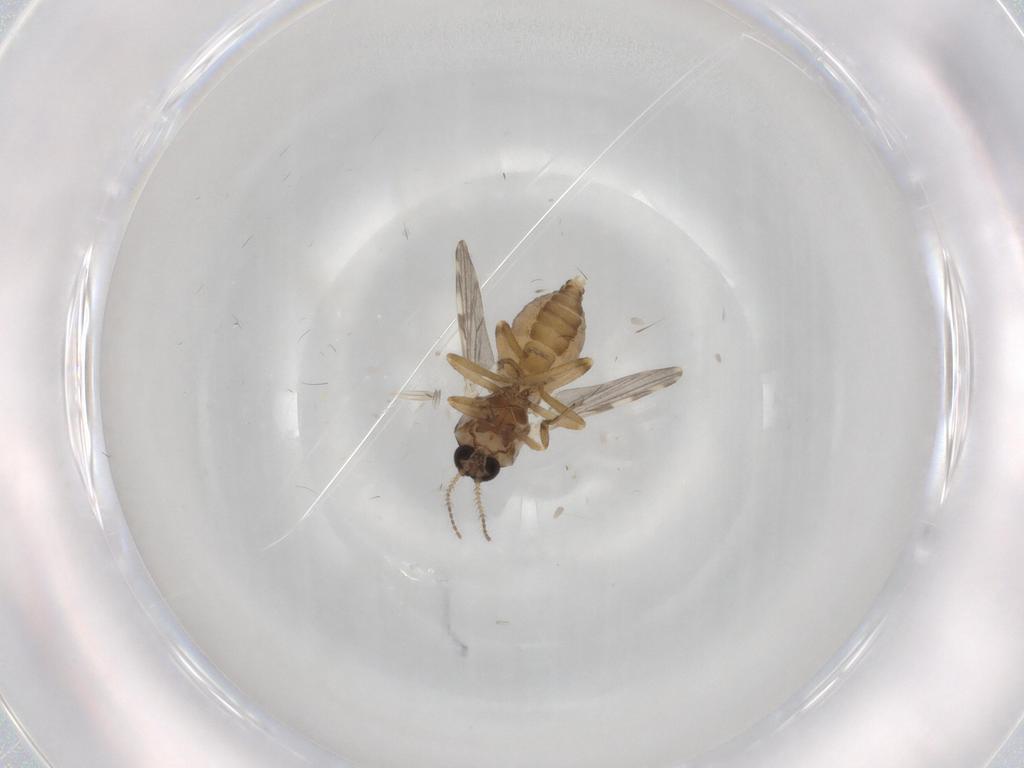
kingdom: Animalia
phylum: Arthropoda
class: Insecta
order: Diptera
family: Ceratopogonidae
